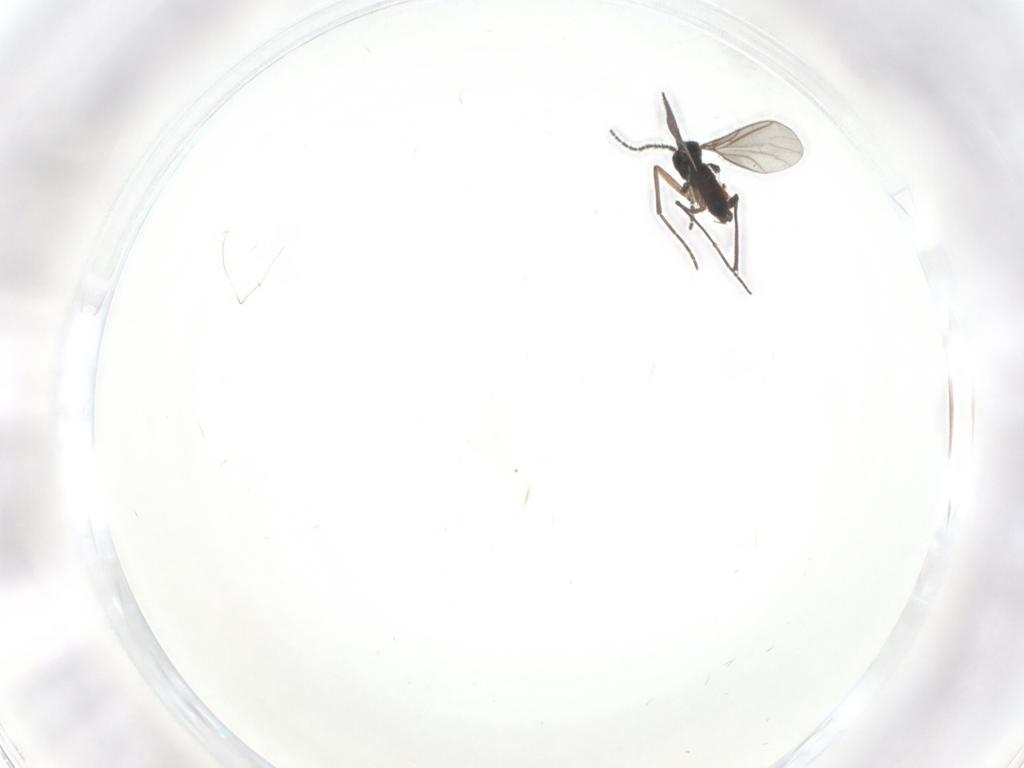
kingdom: Animalia
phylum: Arthropoda
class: Insecta
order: Diptera
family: Sciaridae
